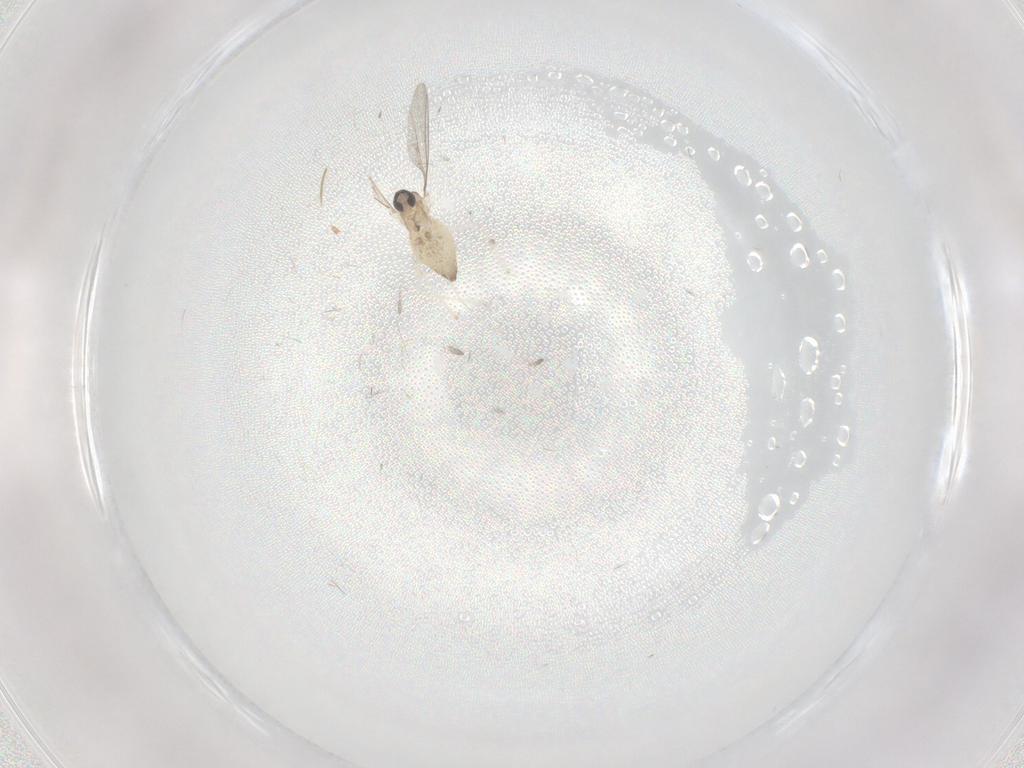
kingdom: Animalia
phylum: Arthropoda
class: Insecta
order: Diptera
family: Cecidomyiidae
